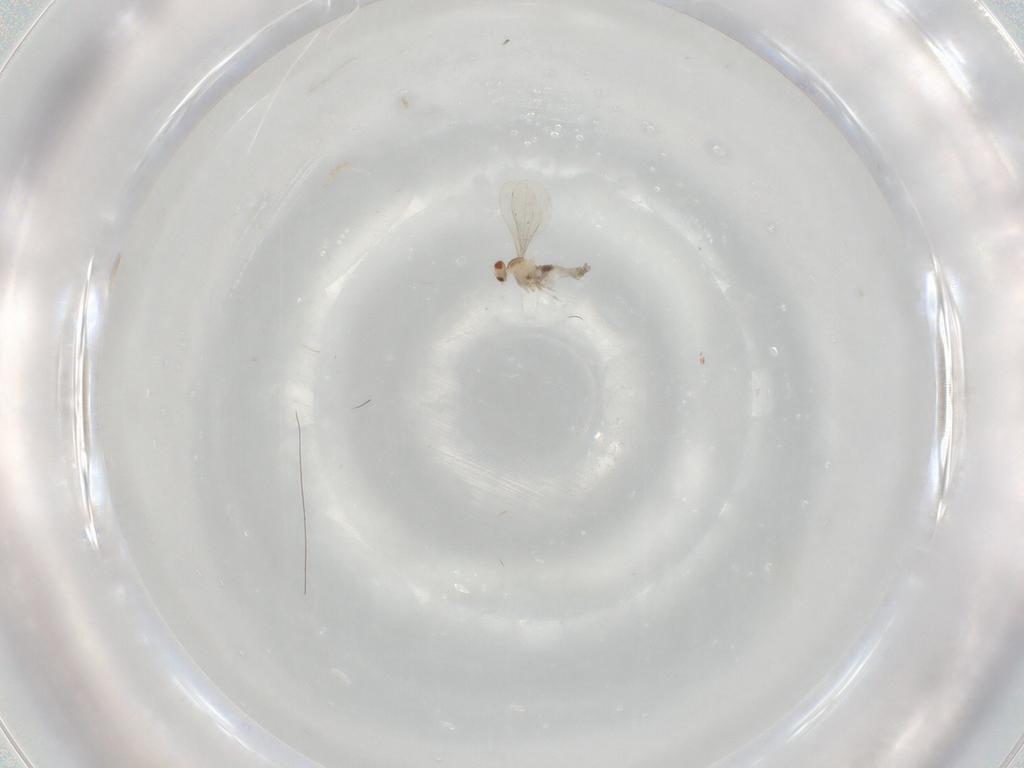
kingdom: Animalia
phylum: Arthropoda
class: Insecta
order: Diptera
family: Cecidomyiidae
